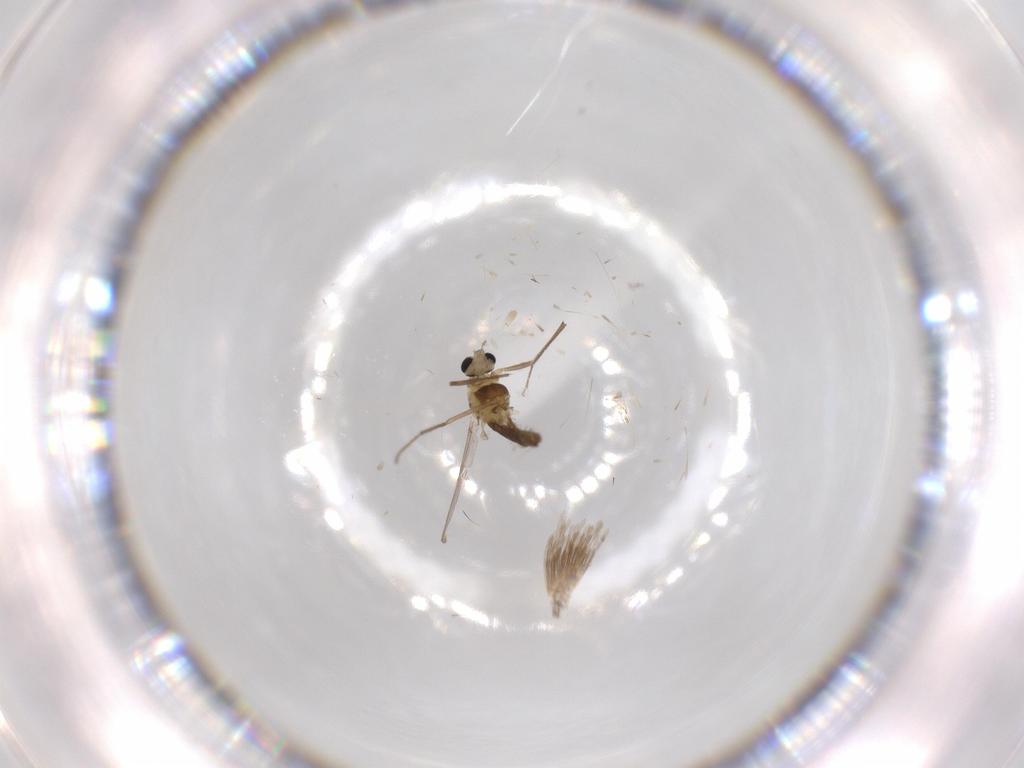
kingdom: Animalia
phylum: Arthropoda
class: Insecta
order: Diptera
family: Chironomidae
